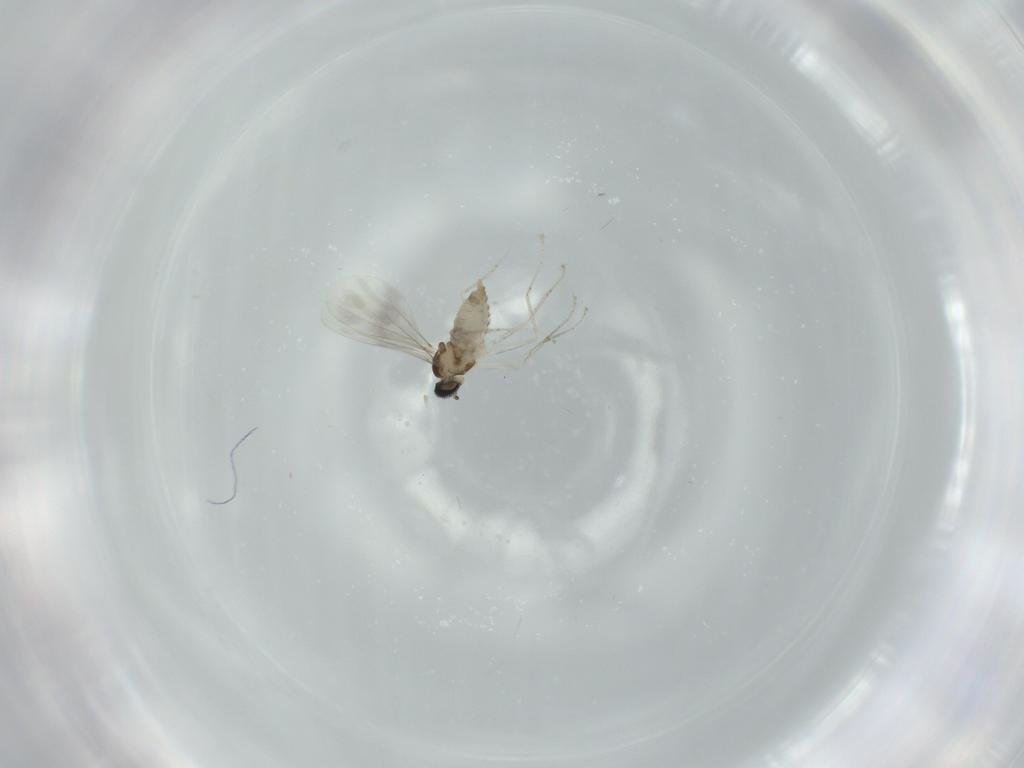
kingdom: Animalia
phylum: Arthropoda
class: Insecta
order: Diptera
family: Cecidomyiidae
